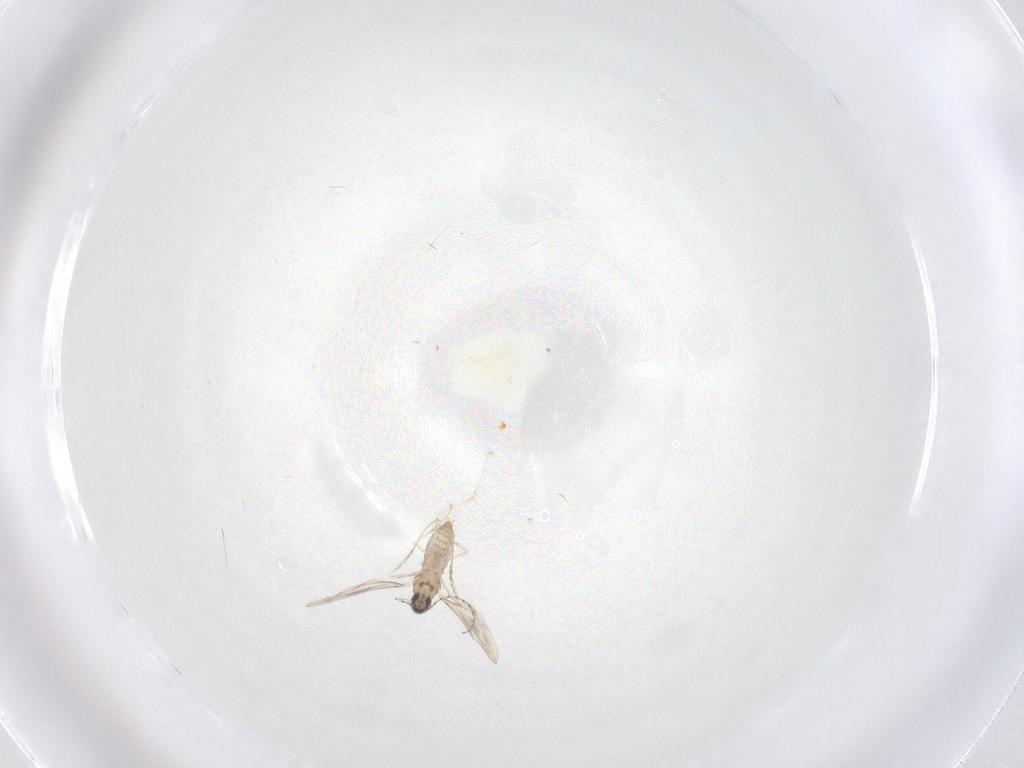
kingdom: Animalia
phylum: Arthropoda
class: Insecta
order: Diptera
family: Cecidomyiidae
